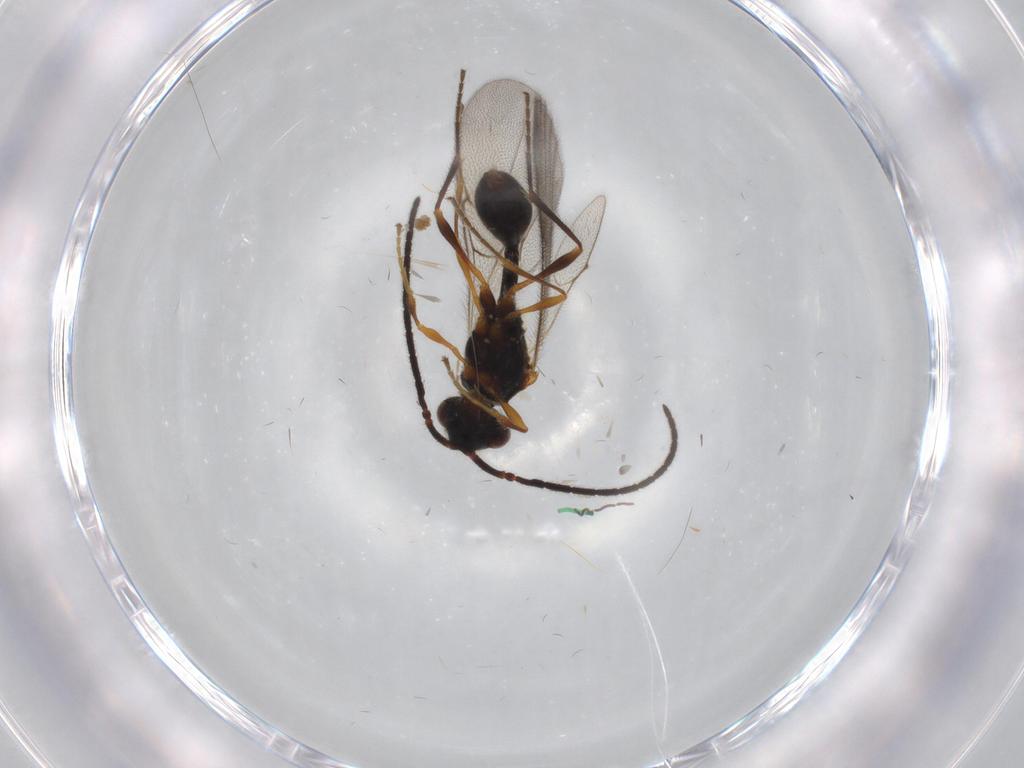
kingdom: Animalia
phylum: Arthropoda
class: Insecta
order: Hymenoptera
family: Diapriidae
